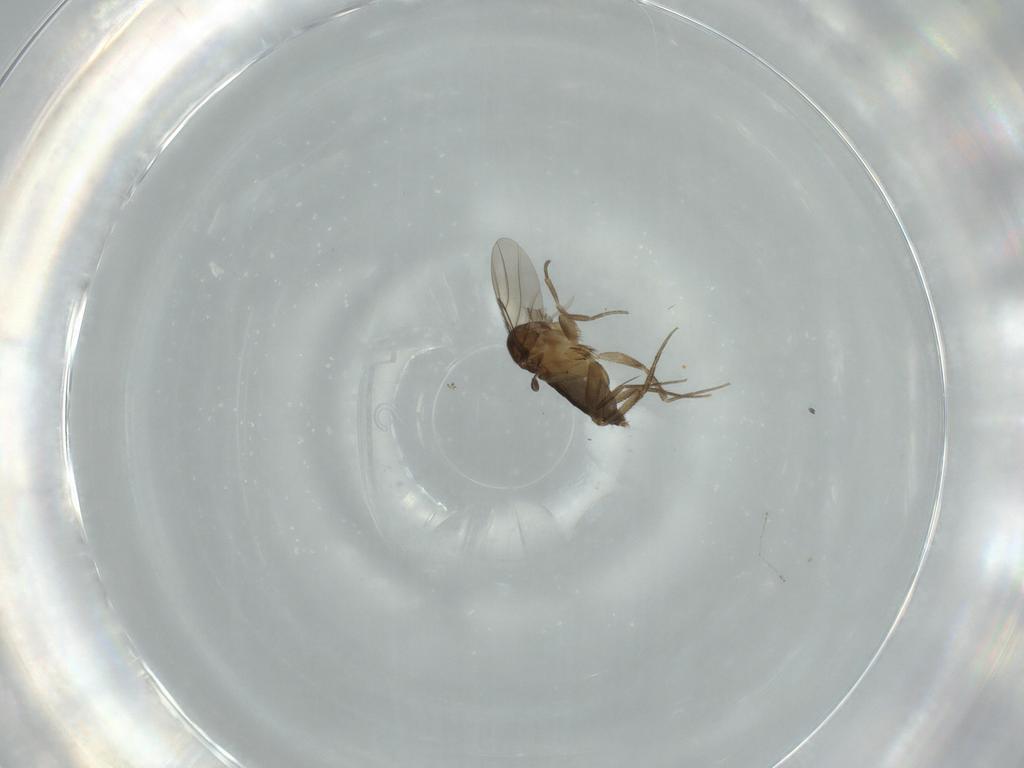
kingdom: Animalia
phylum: Arthropoda
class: Insecta
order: Diptera
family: Phoridae
